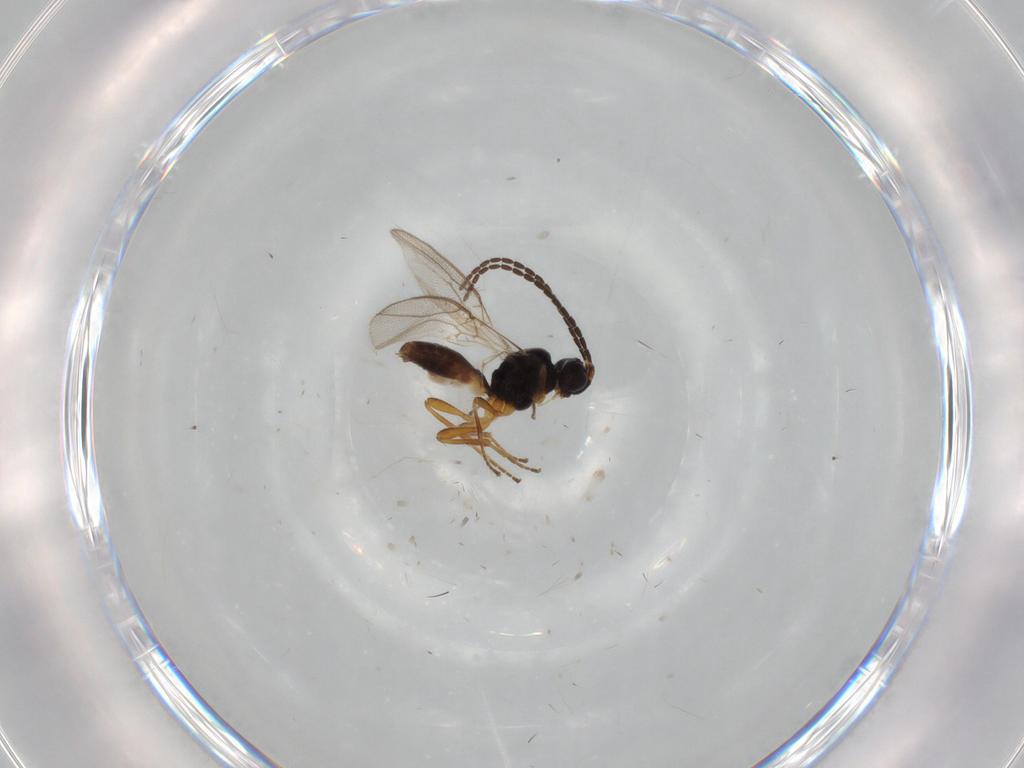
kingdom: Animalia
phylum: Arthropoda
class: Insecta
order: Hymenoptera
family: Braconidae
